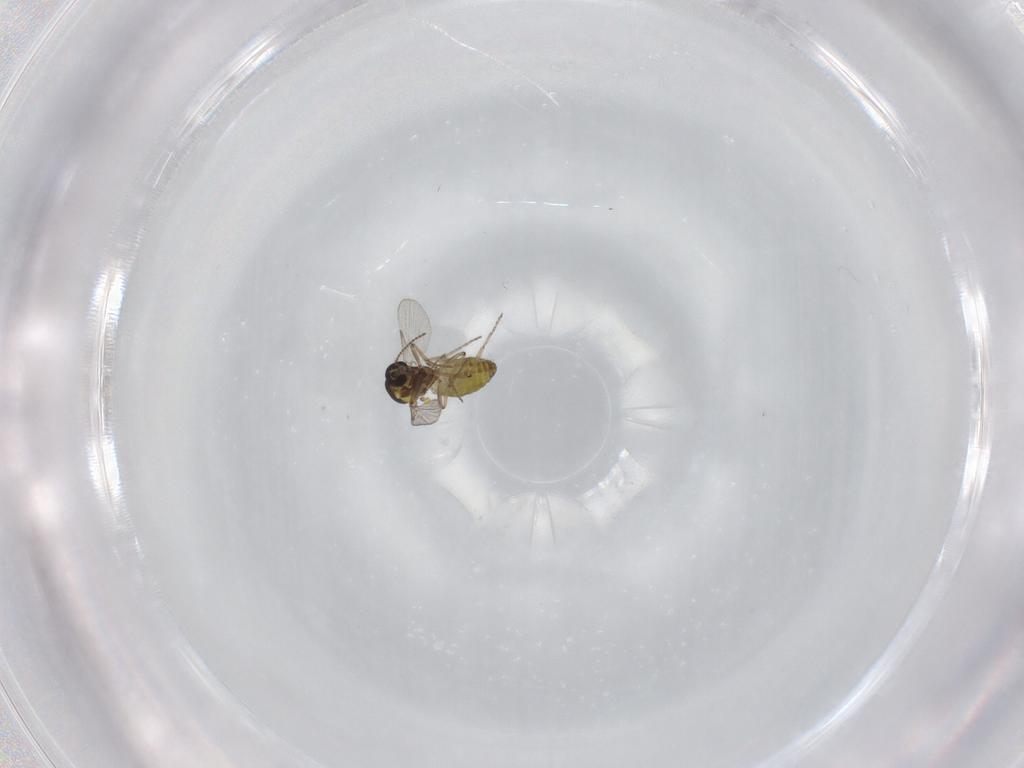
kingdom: Animalia
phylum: Arthropoda
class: Insecta
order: Diptera
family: Ceratopogonidae
